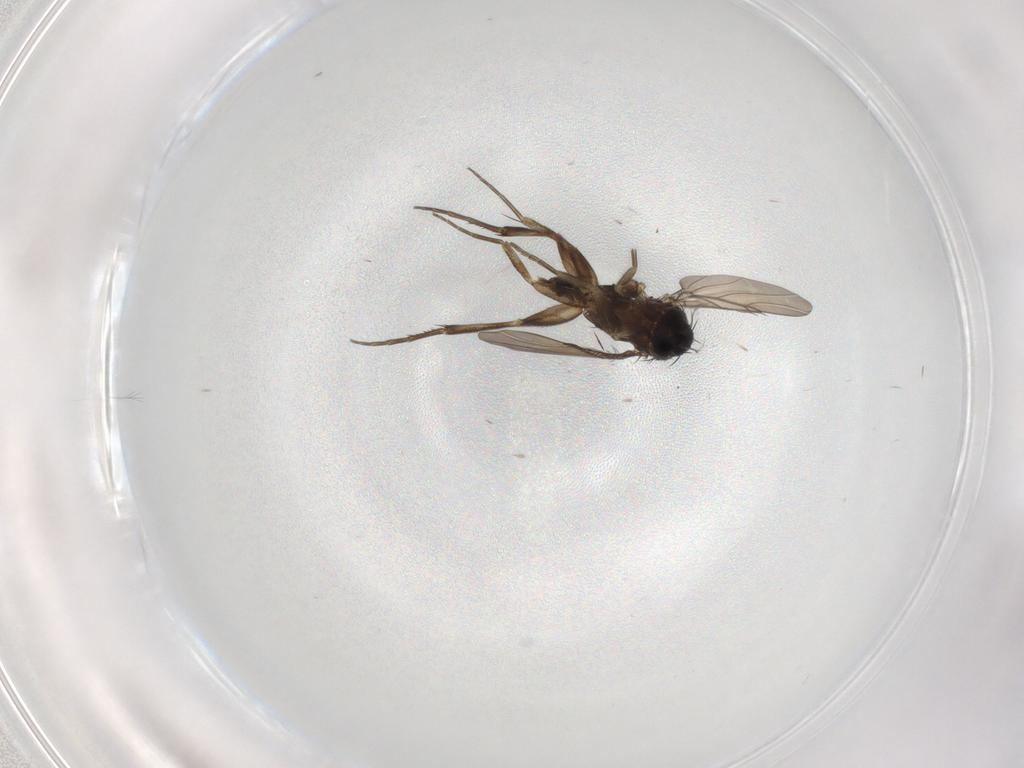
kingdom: Animalia
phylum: Arthropoda
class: Insecta
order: Diptera
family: Phoridae
